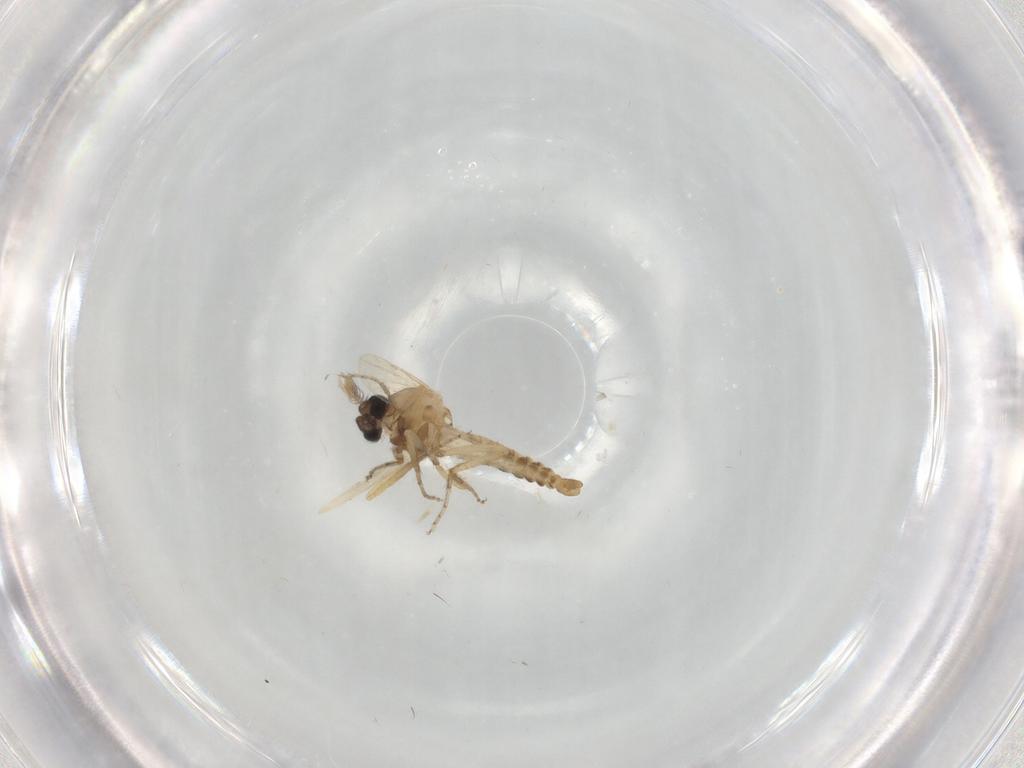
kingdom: Animalia
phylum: Arthropoda
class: Insecta
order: Diptera
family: Ceratopogonidae
